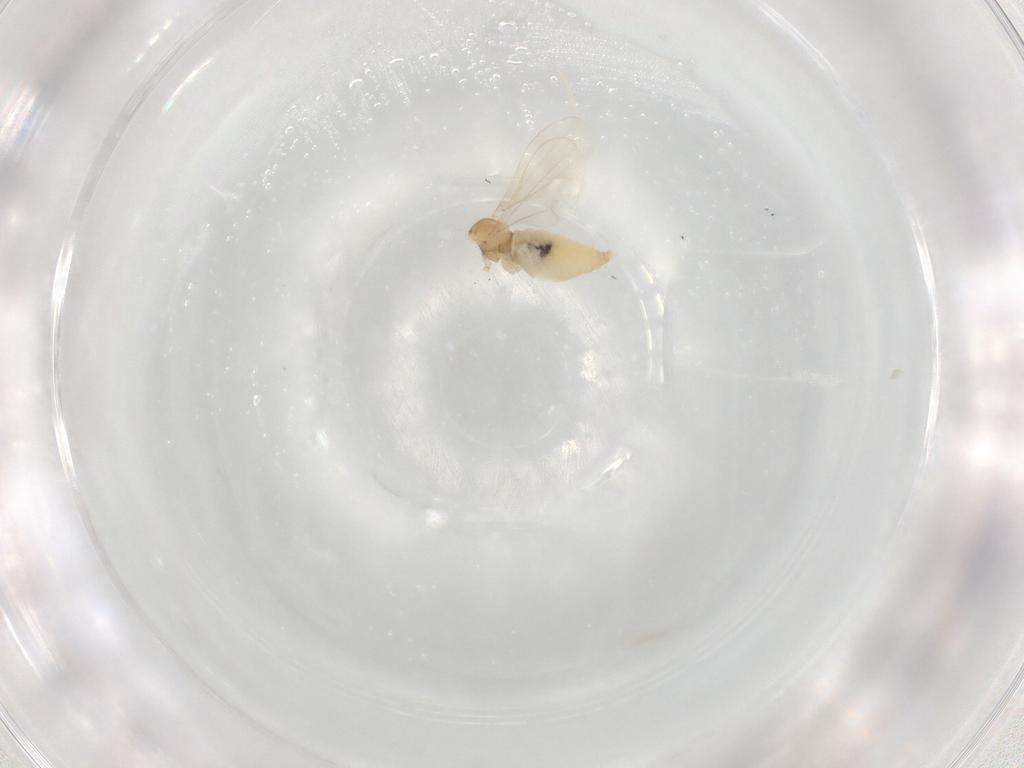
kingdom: Animalia
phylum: Arthropoda
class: Insecta
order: Diptera
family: Cecidomyiidae
